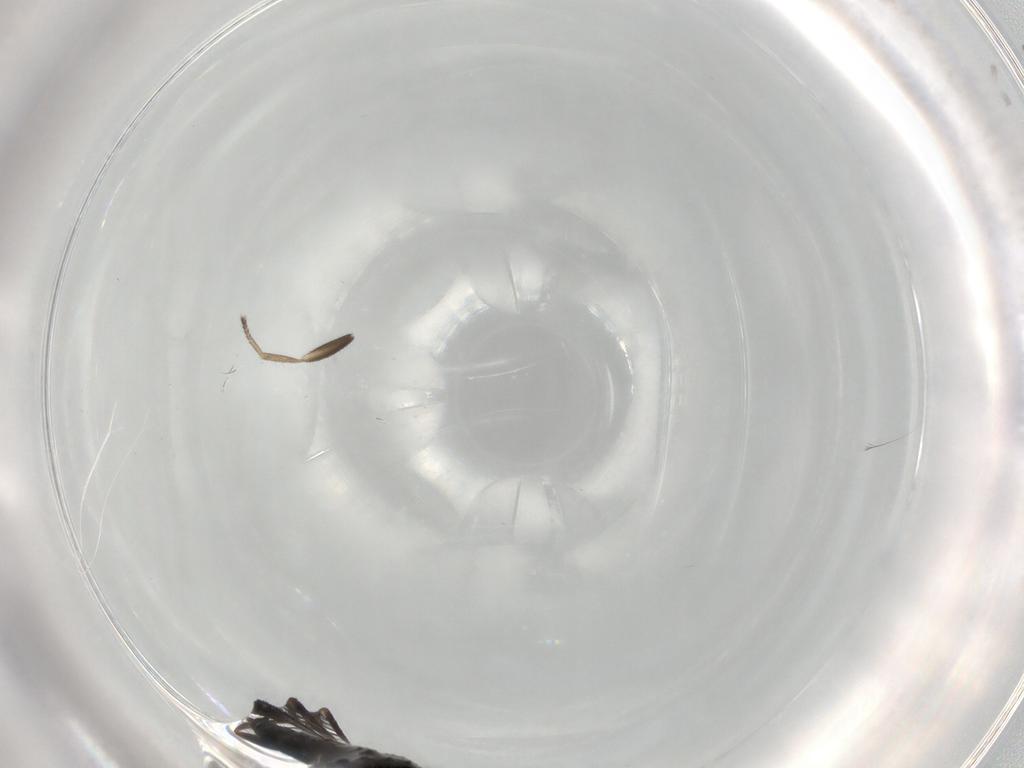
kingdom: Animalia
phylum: Arthropoda
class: Insecta
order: Diptera
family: Phoridae
